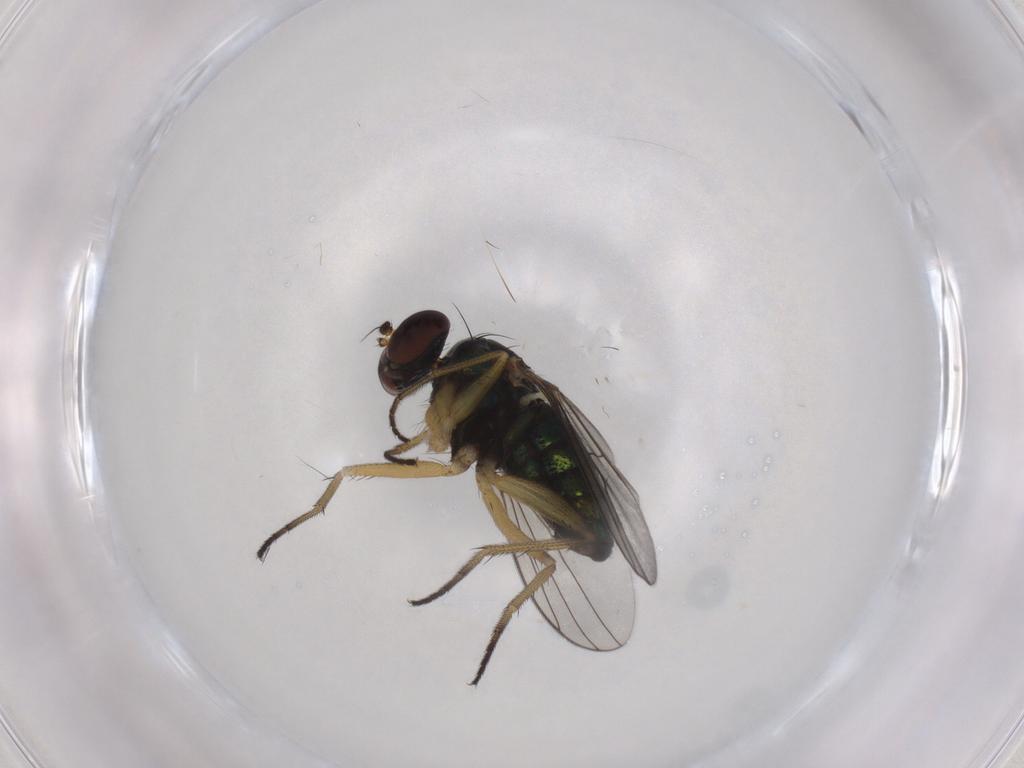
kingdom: Animalia
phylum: Arthropoda
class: Insecta
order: Diptera
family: Dolichopodidae
